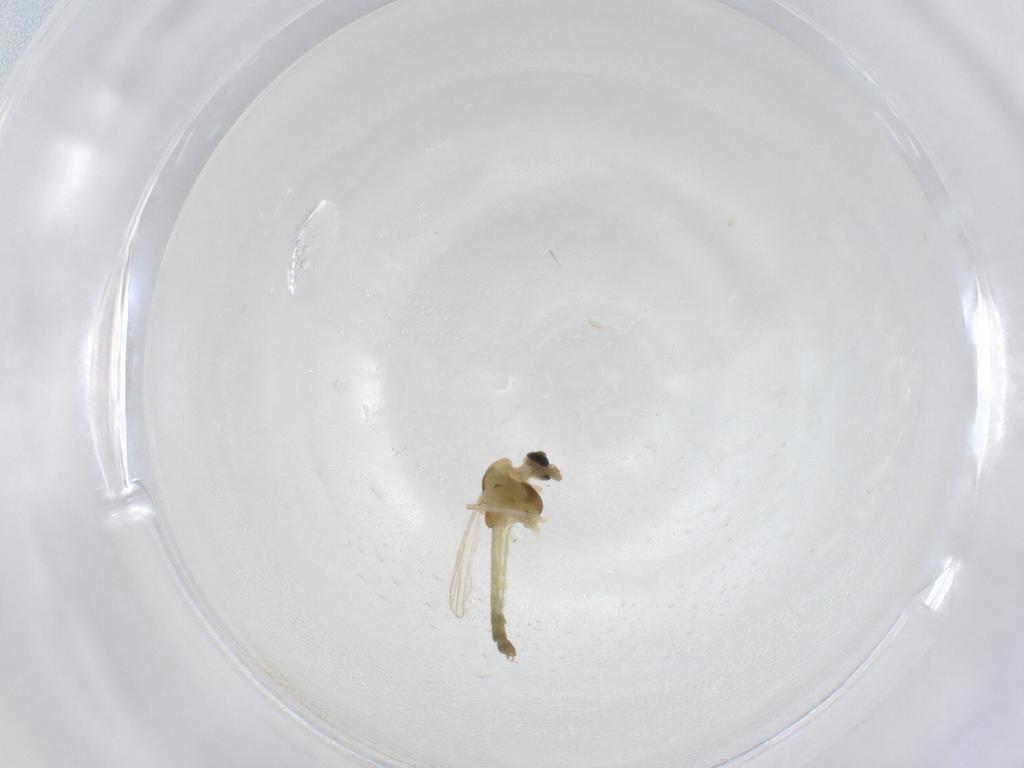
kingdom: Animalia
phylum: Arthropoda
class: Insecta
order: Diptera
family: Chironomidae
